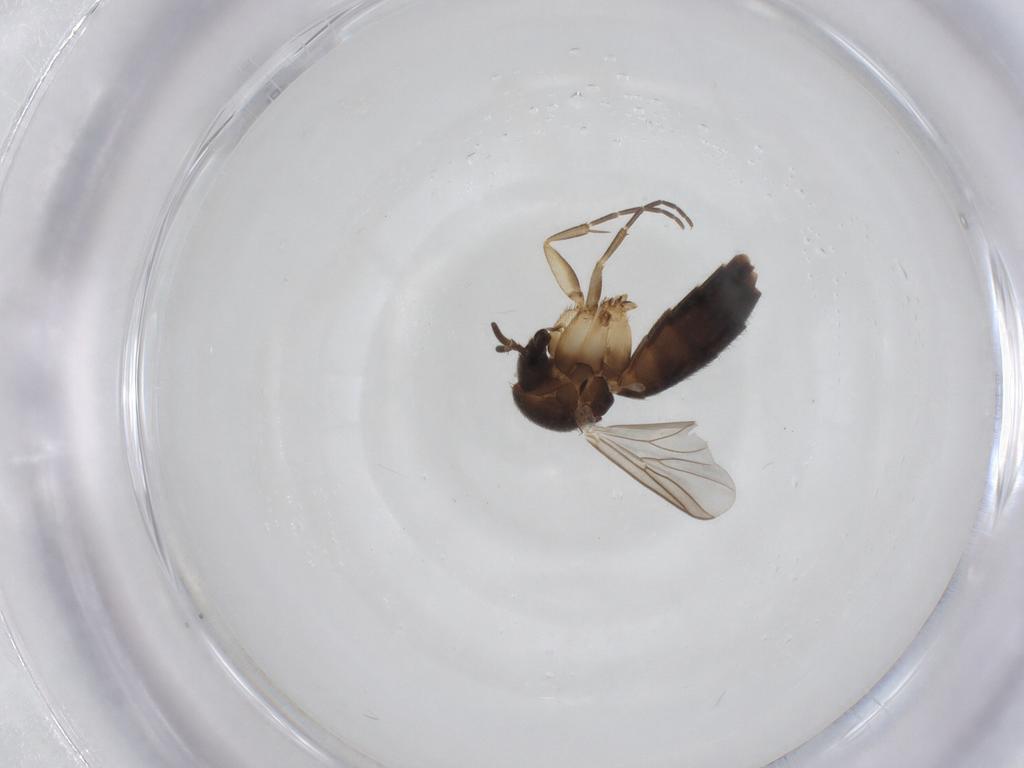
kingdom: Animalia
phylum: Arthropoda
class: Insecta
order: Diptera
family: Mycetophilidae
